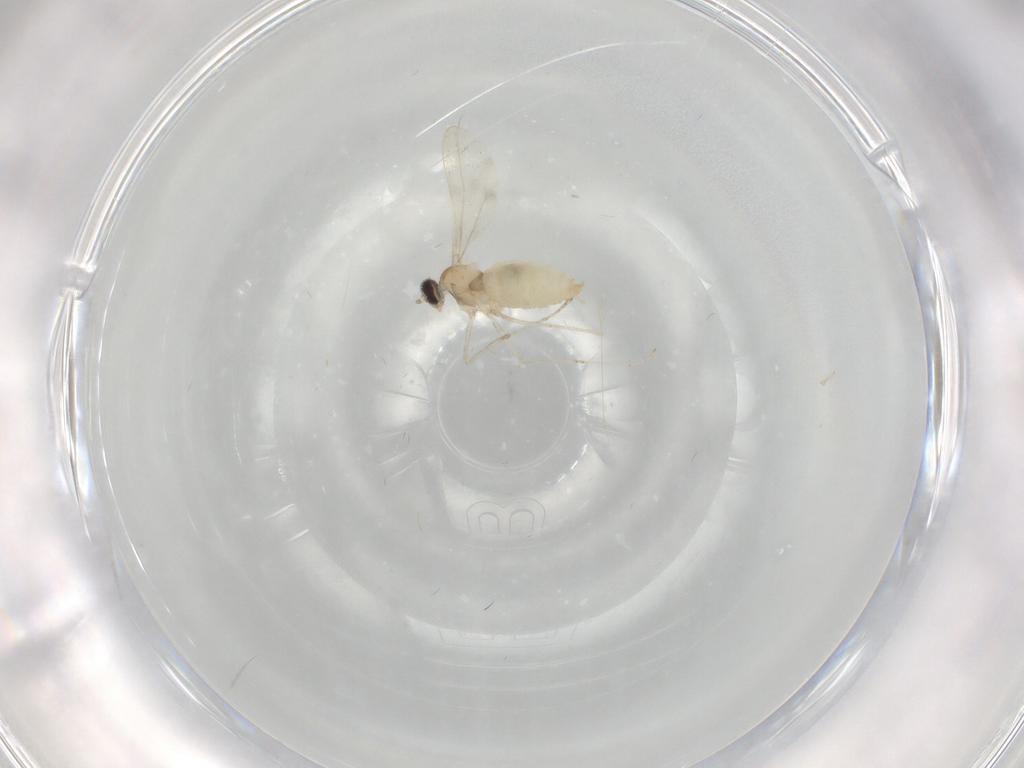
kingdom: Animalia
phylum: Arthropoda
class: Insecta
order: Diptera
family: Cecidomyiidae
